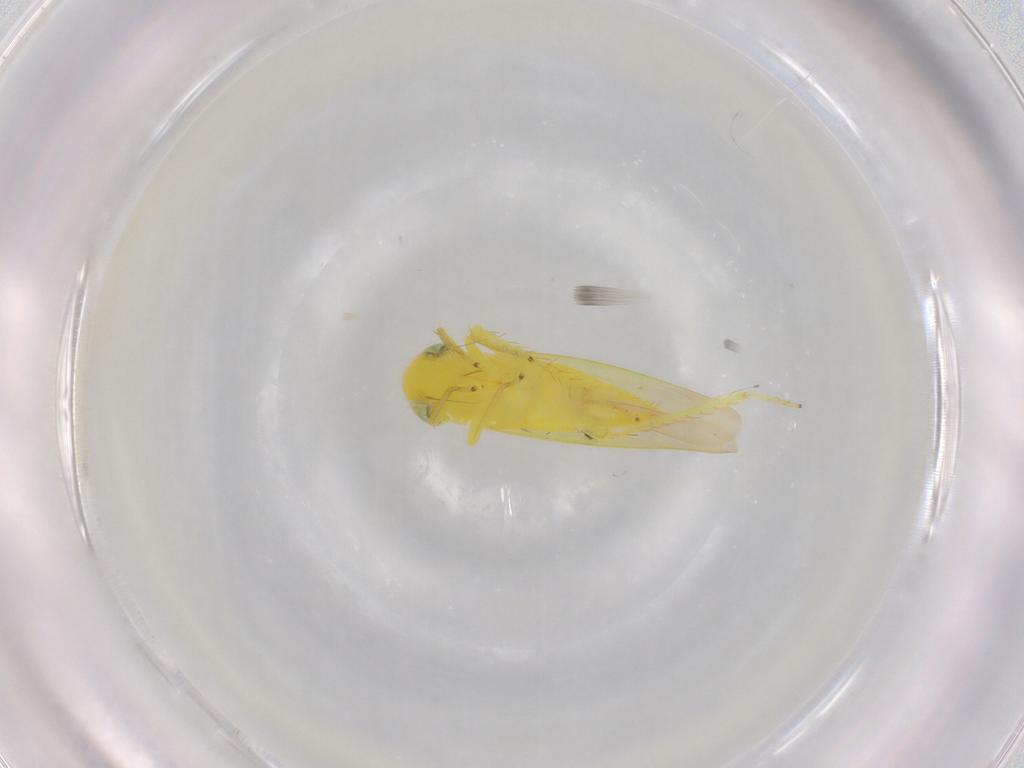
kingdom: Animalia
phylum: Arthropoda
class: Insecta
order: Hemiptera
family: Cicadellidae
